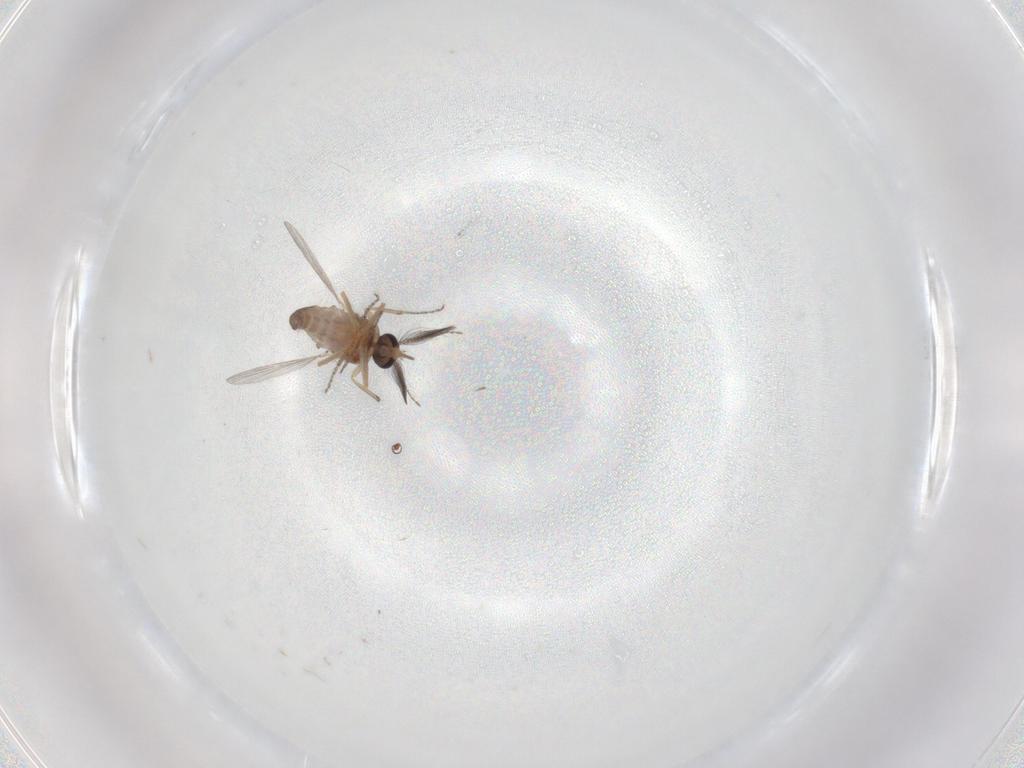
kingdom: Animalia
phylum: Arthropoda
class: Insecta
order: Diptera
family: Ceratopogonidae
